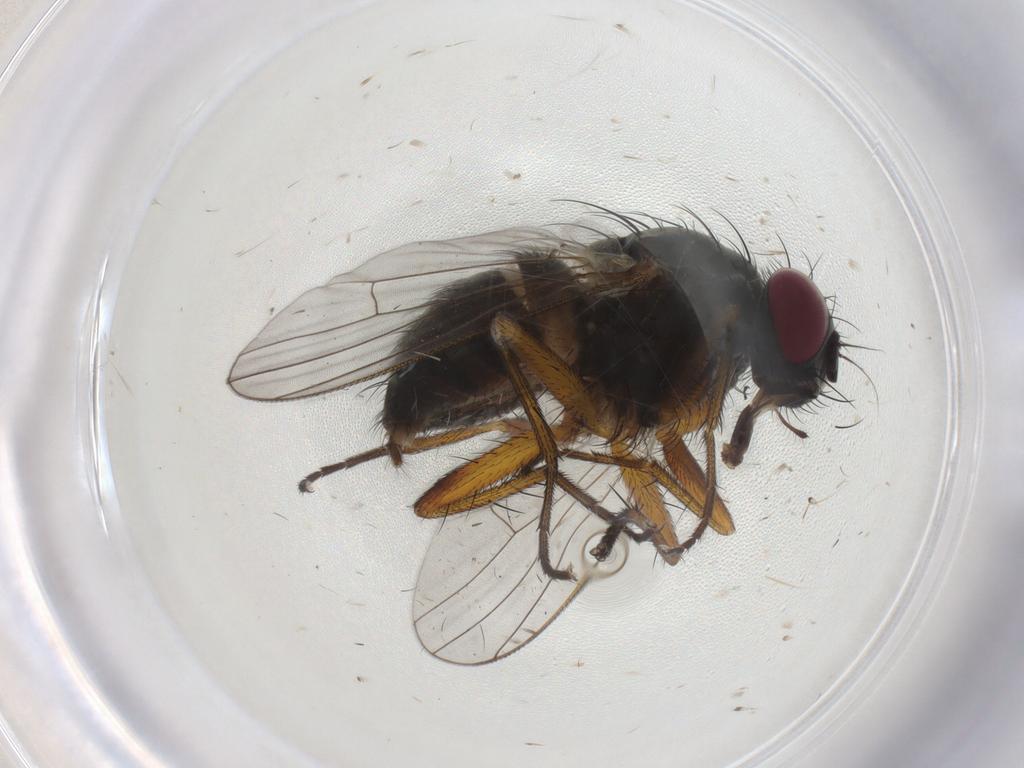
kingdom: Animalia
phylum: Arthropoda
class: Insecta
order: Diptera
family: Muscidae
